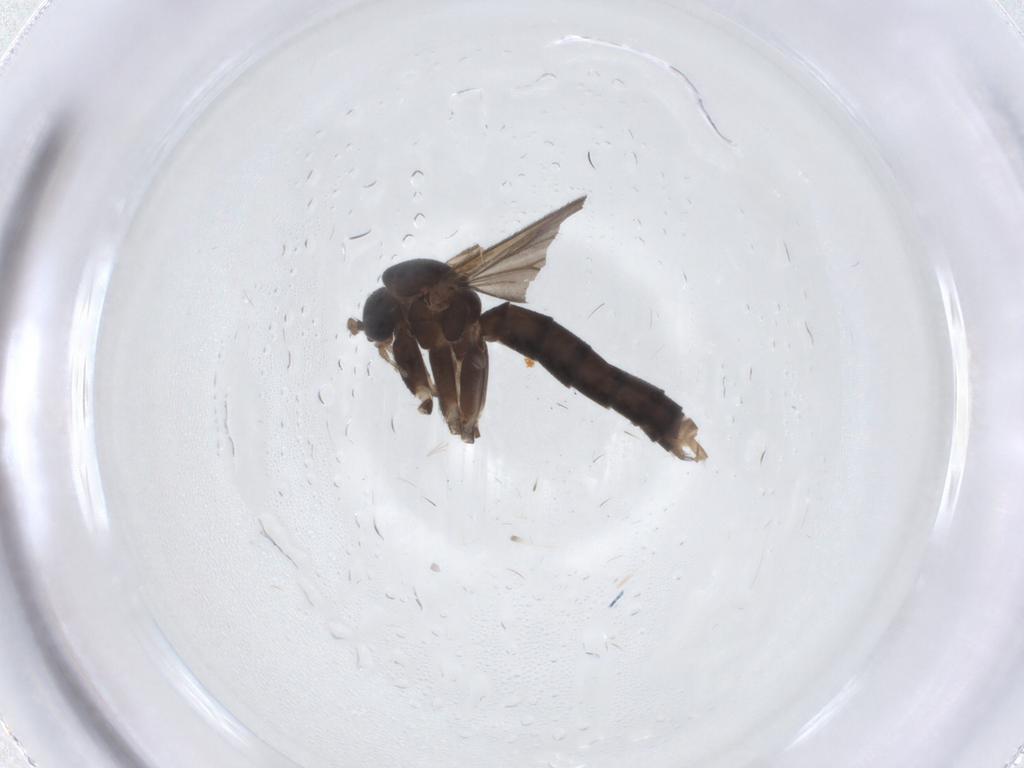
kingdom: Animalia
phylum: Arthropoda
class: Insecta
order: Diptera
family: Mycetophilidae
